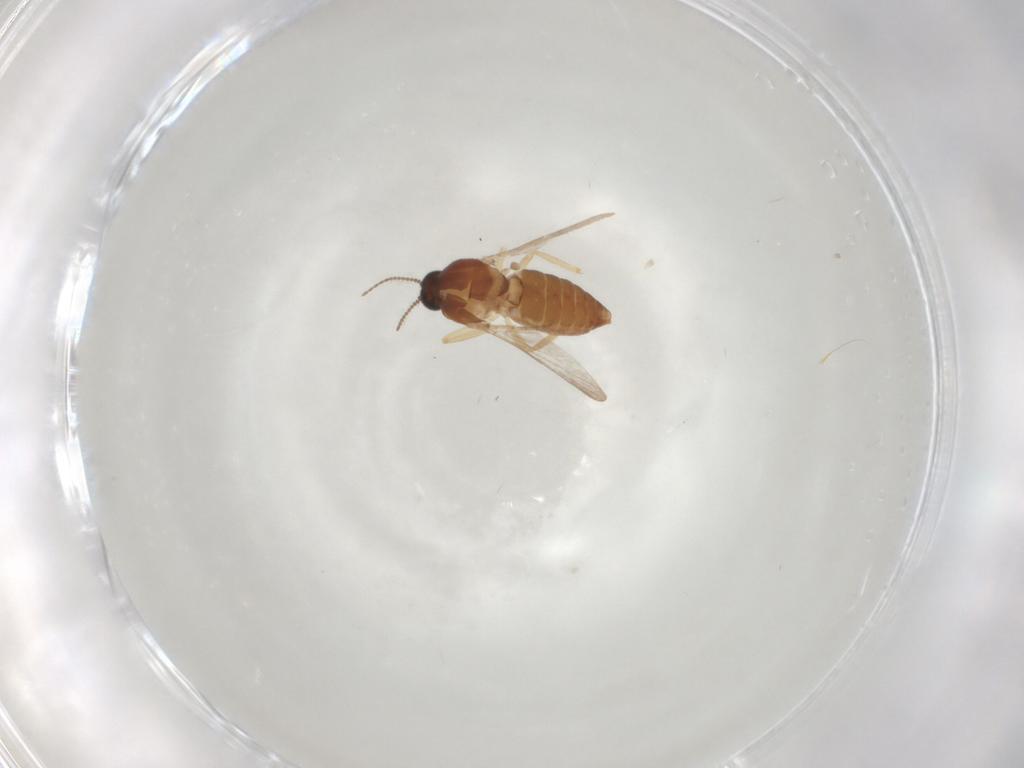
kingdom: Animalia
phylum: Arthropoda
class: Insecta
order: Diptera
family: Ceratopogonidae
